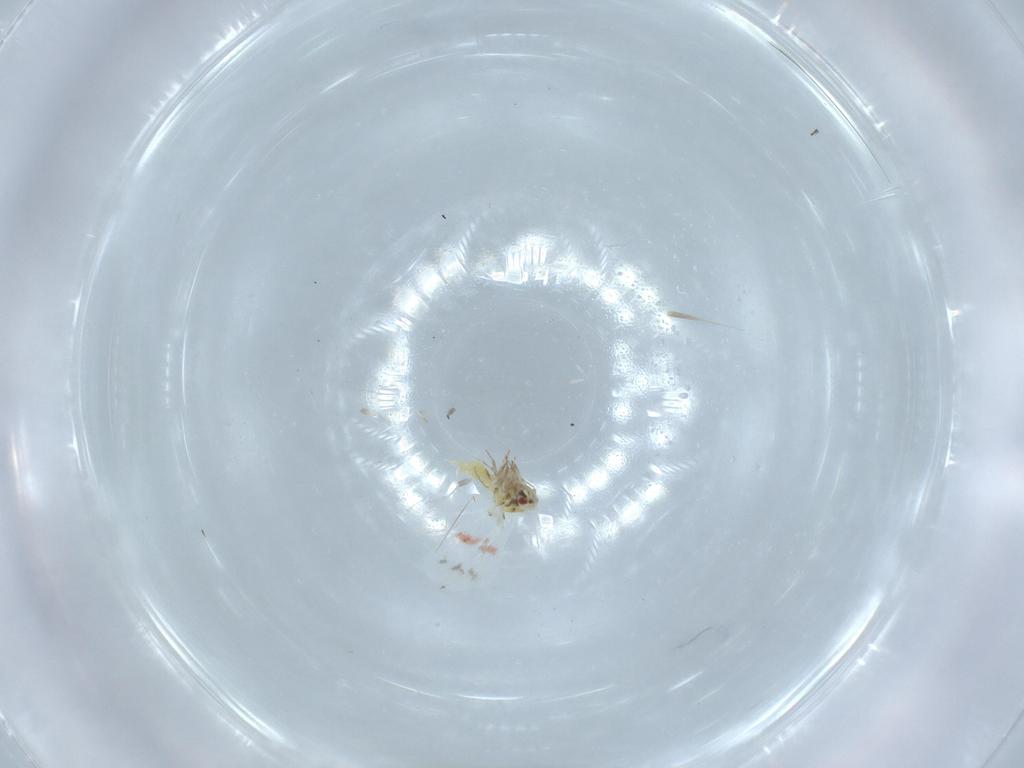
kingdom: Animalia
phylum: Arthropoda
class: Insecta
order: Hemiptera
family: Aleyrodidae
